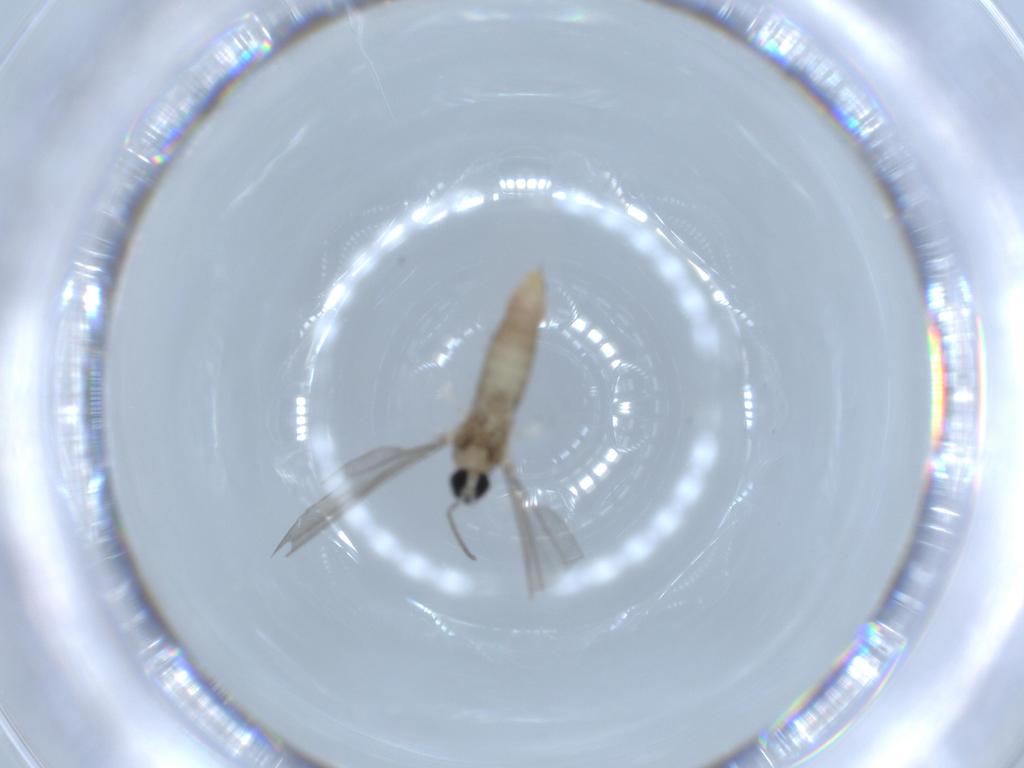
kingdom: Animalia
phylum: Arthropoda
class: Insecta
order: Diptera
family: Cecidomyiidae
